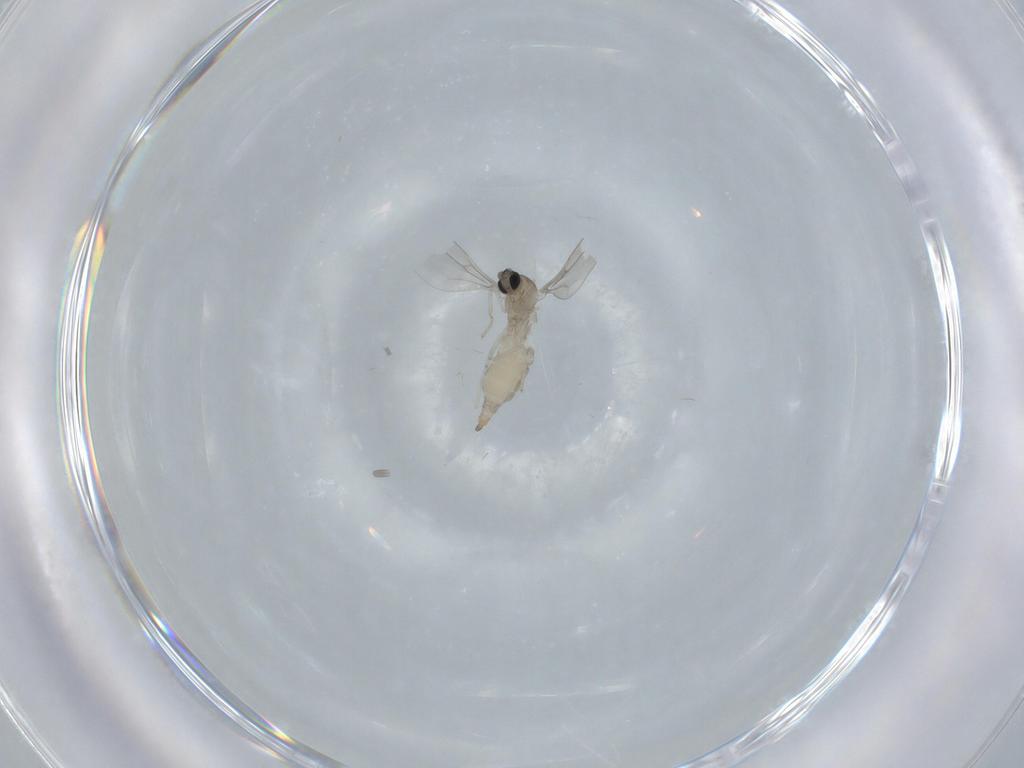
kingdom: Animalia
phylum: Arthropoda
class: Insecta
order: Diptera
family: Cecidomyiidae
